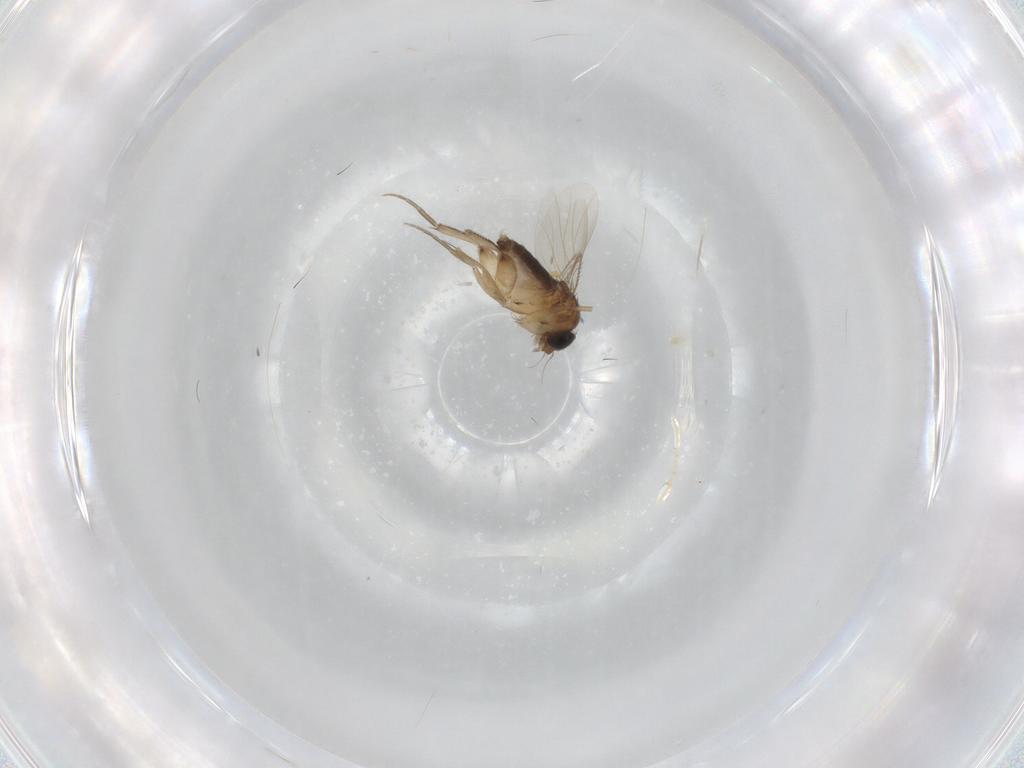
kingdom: Animalia
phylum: Arthropoda
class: Insecta
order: Diptera
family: Phoridae
